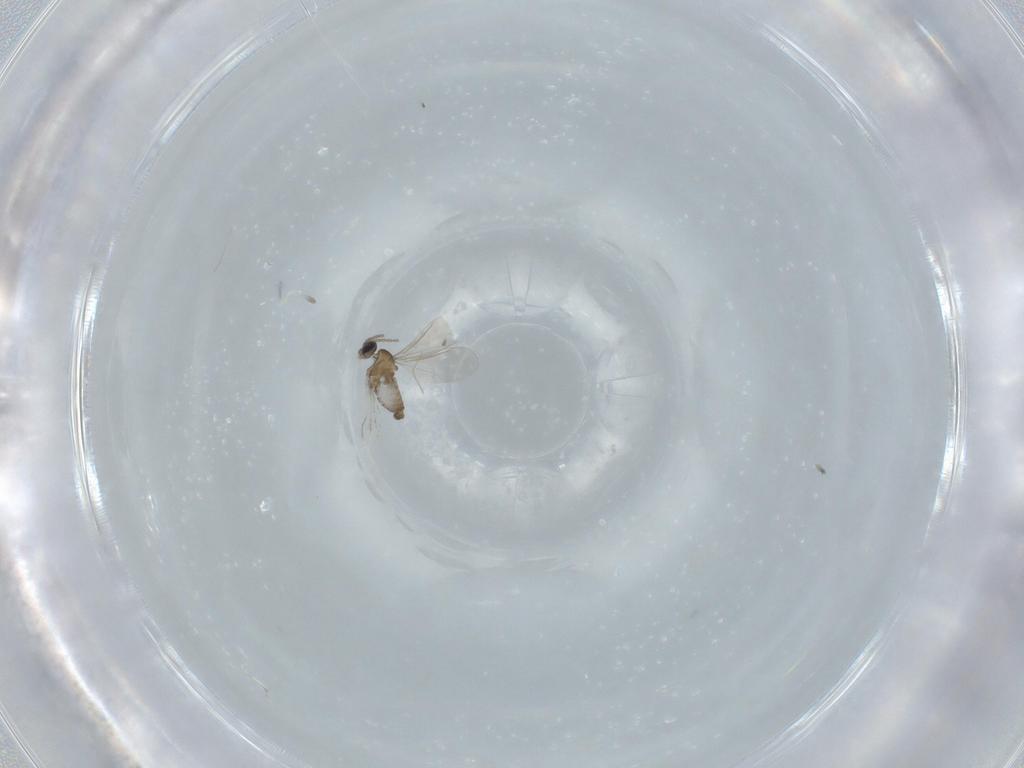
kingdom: Animalia
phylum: Arthropoda
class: Insecta
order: Diptera
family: Cecidomyiidae
